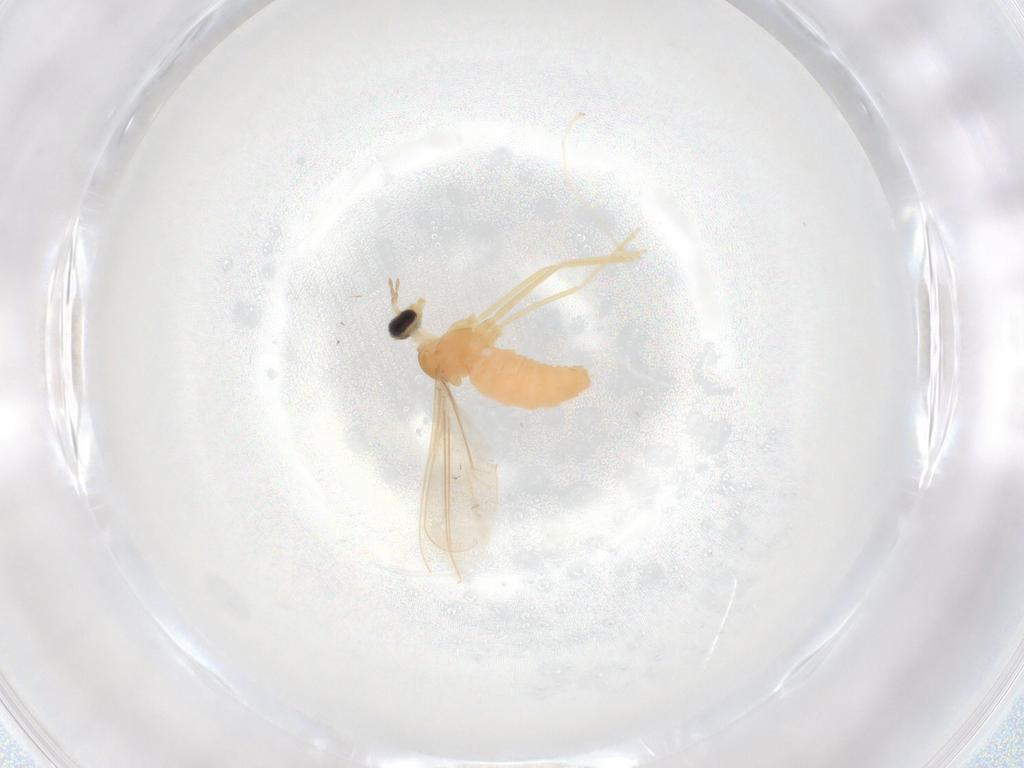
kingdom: Animalia
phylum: Arthropoda
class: Insecta
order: Diptera
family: Cecidomyiidae
